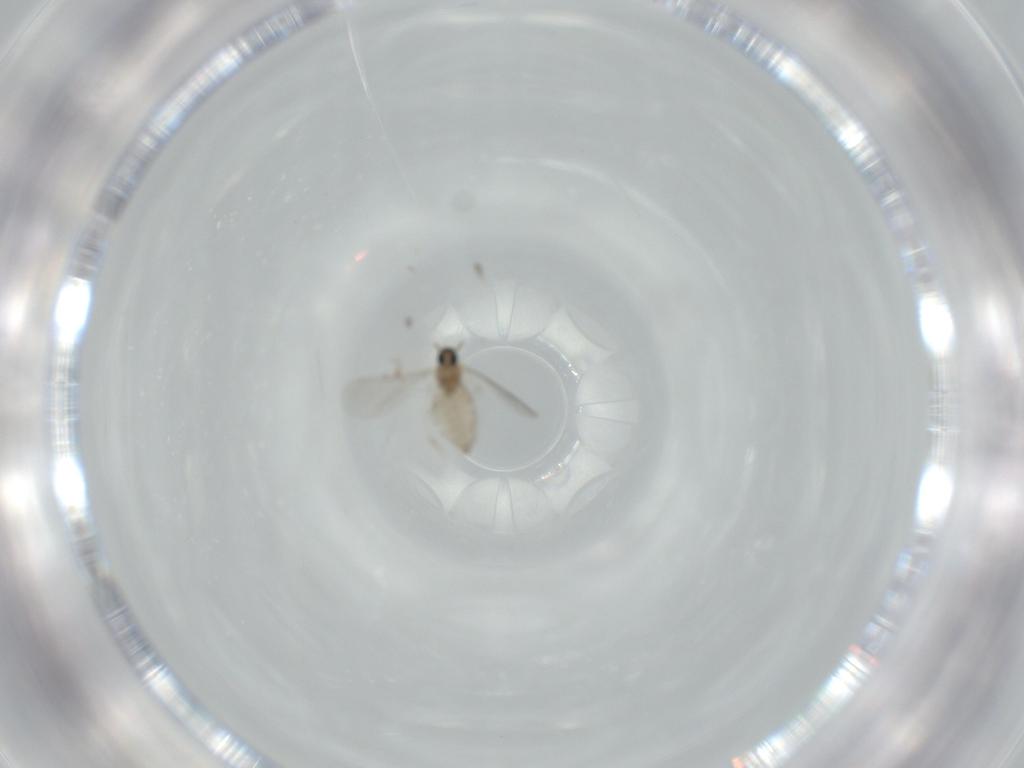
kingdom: Animalia
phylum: Arthropoda
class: Insecta
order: Diptera
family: Cecidomyiidae
